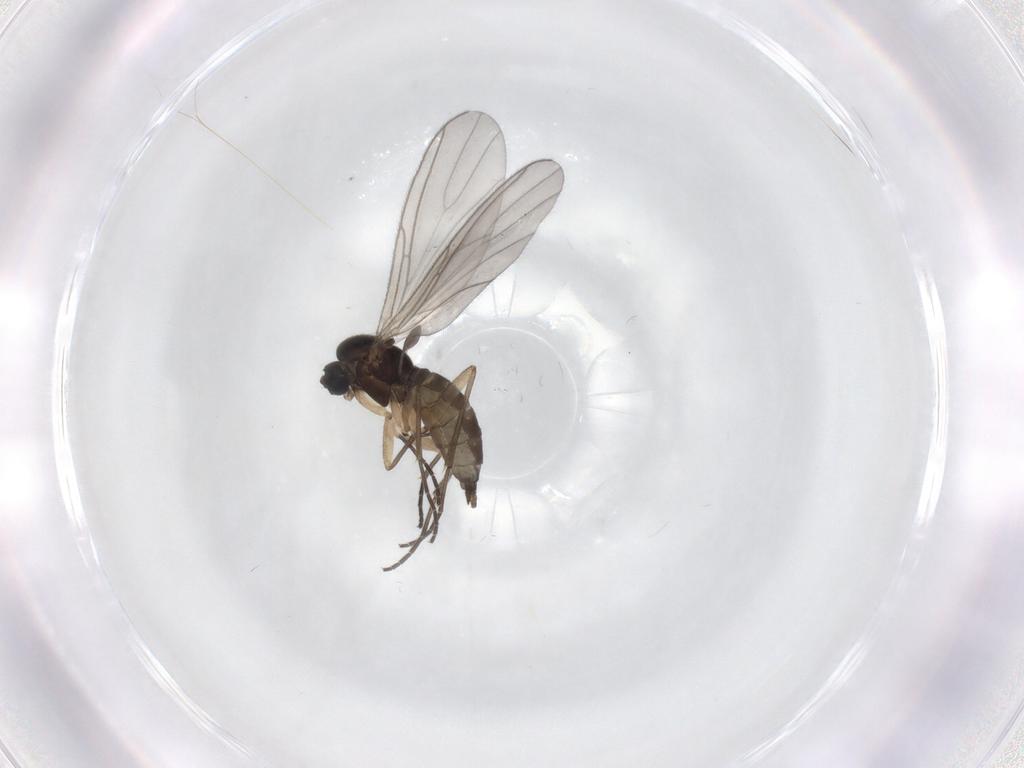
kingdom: Animalia
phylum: Arthropoda
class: Insecta
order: Diptera
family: Sciaridae
